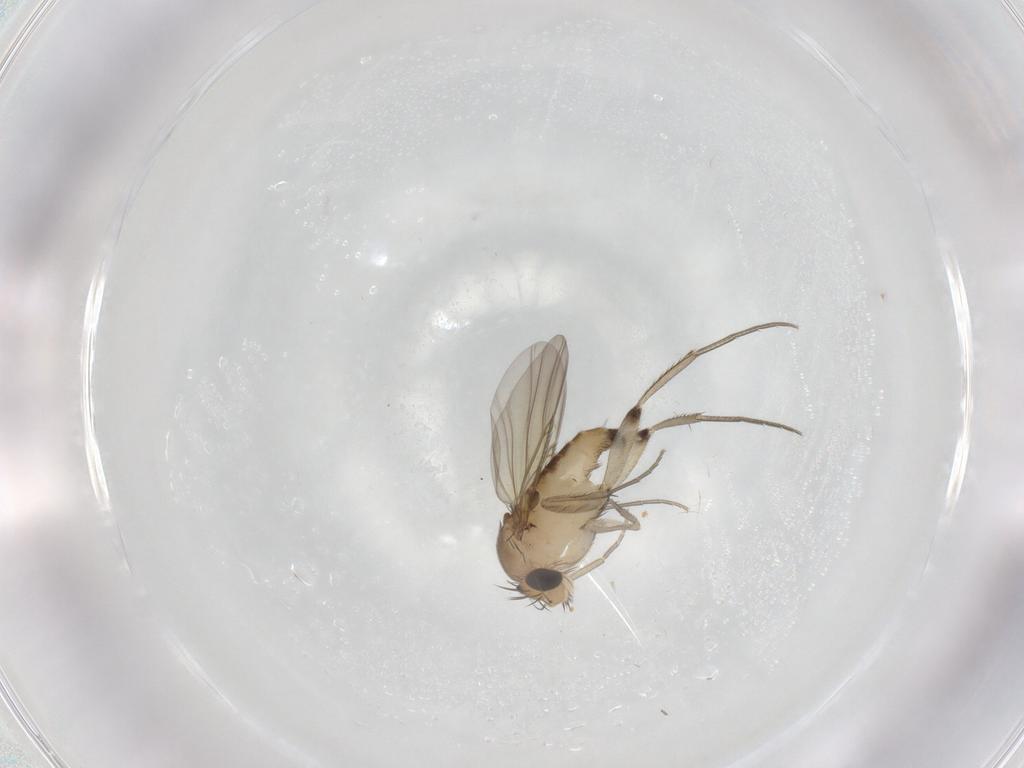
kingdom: Animalia
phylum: Arthropoda
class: Insecta
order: Diptera
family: Phoridae
